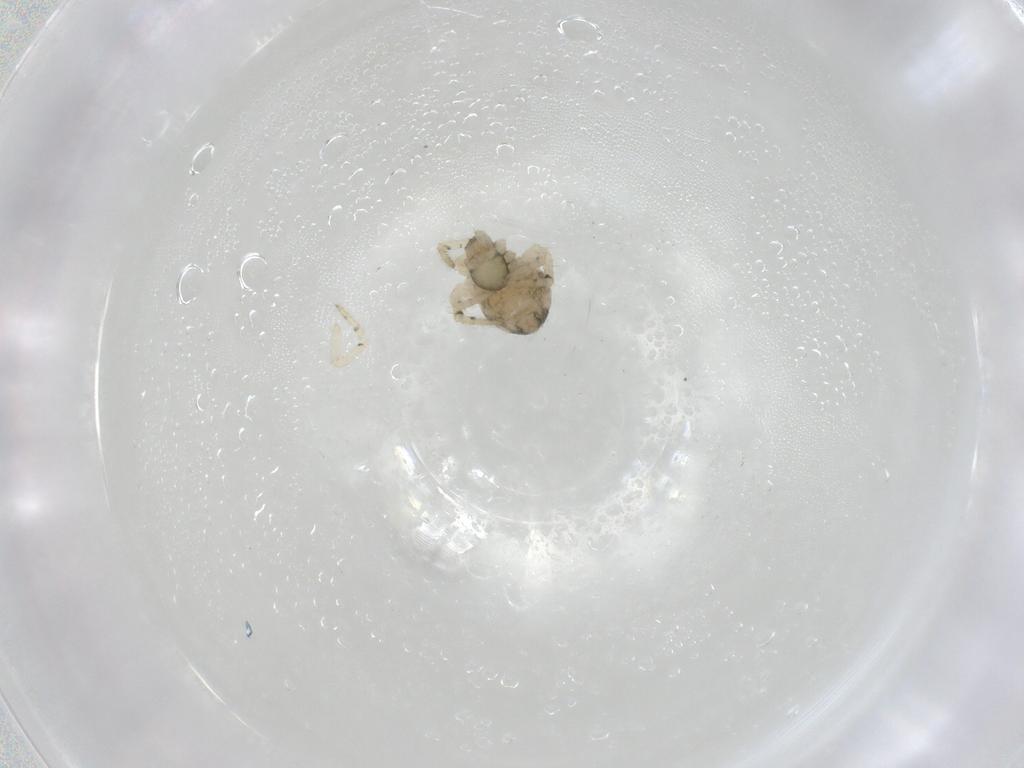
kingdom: Animalia
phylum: Arthropoda
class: Arachnida
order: Araneae
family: Theridiidae
